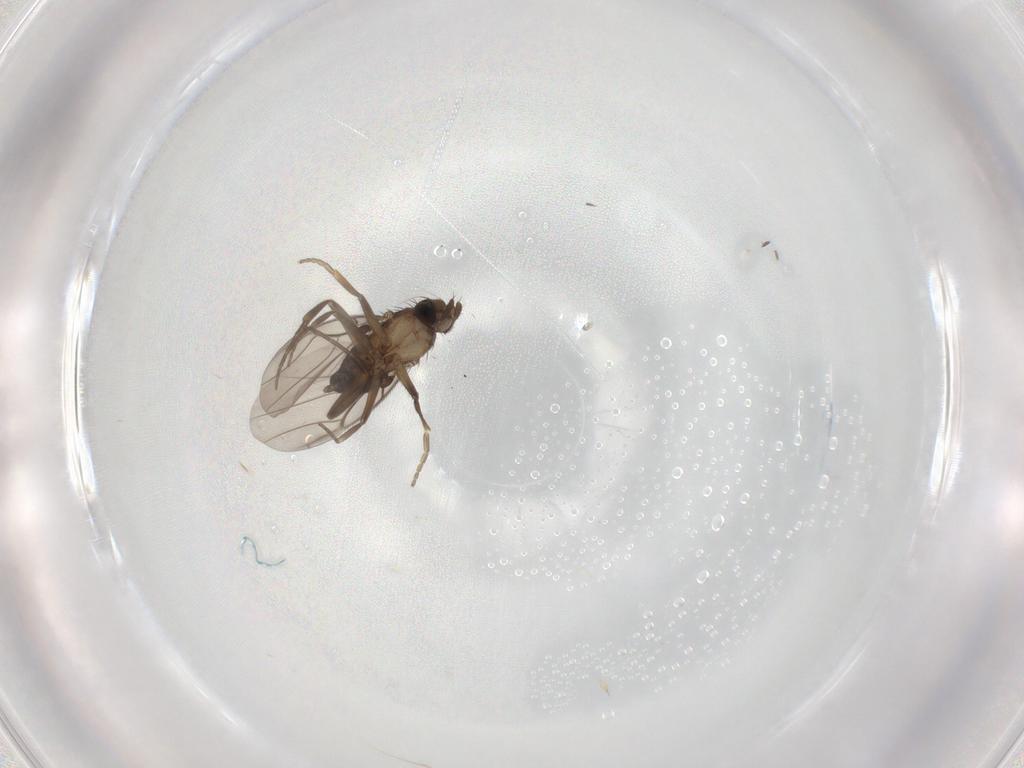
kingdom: Animalia
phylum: Arthropoda
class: Insecta
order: Diptera
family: Phoridae
